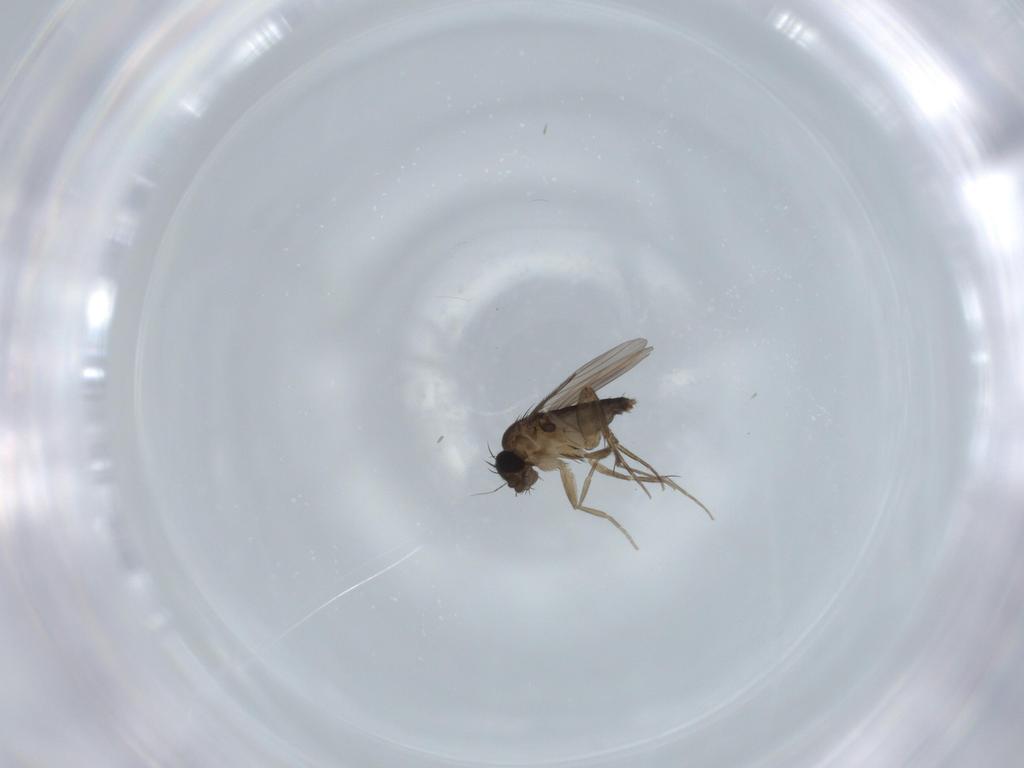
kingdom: Animalia
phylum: Arthropoda
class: Insecta
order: Diptera
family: Phoridae
